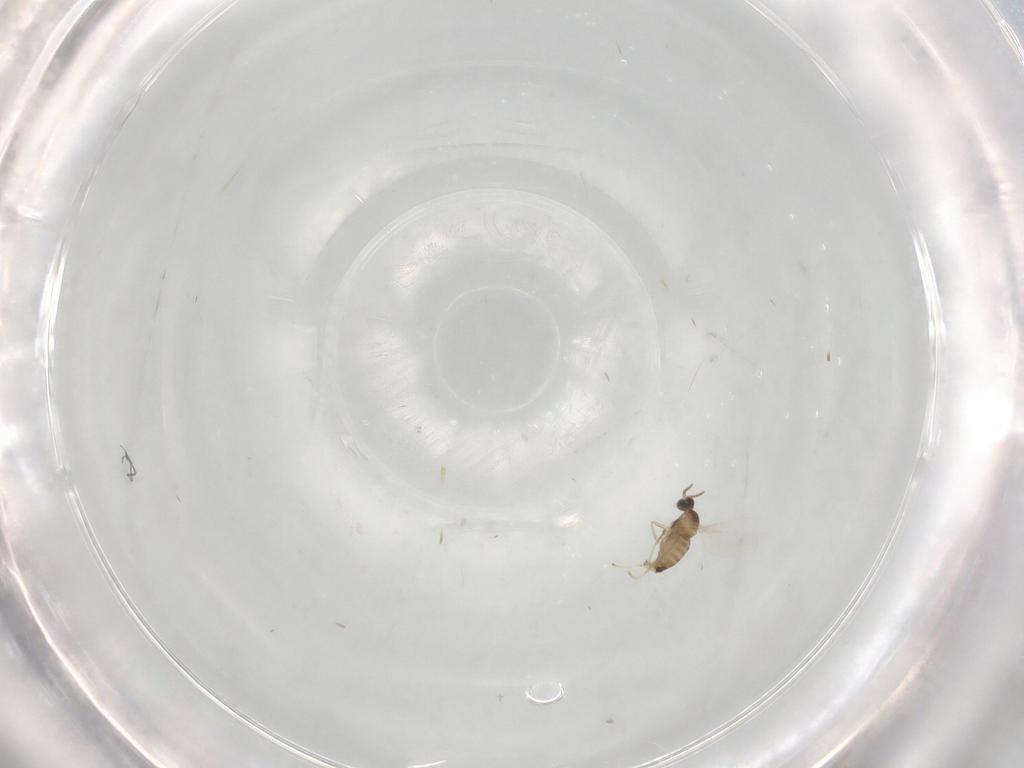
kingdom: Animalia
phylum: Arthropoda
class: Insecta
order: Diptera
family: Cecidomyiidae
